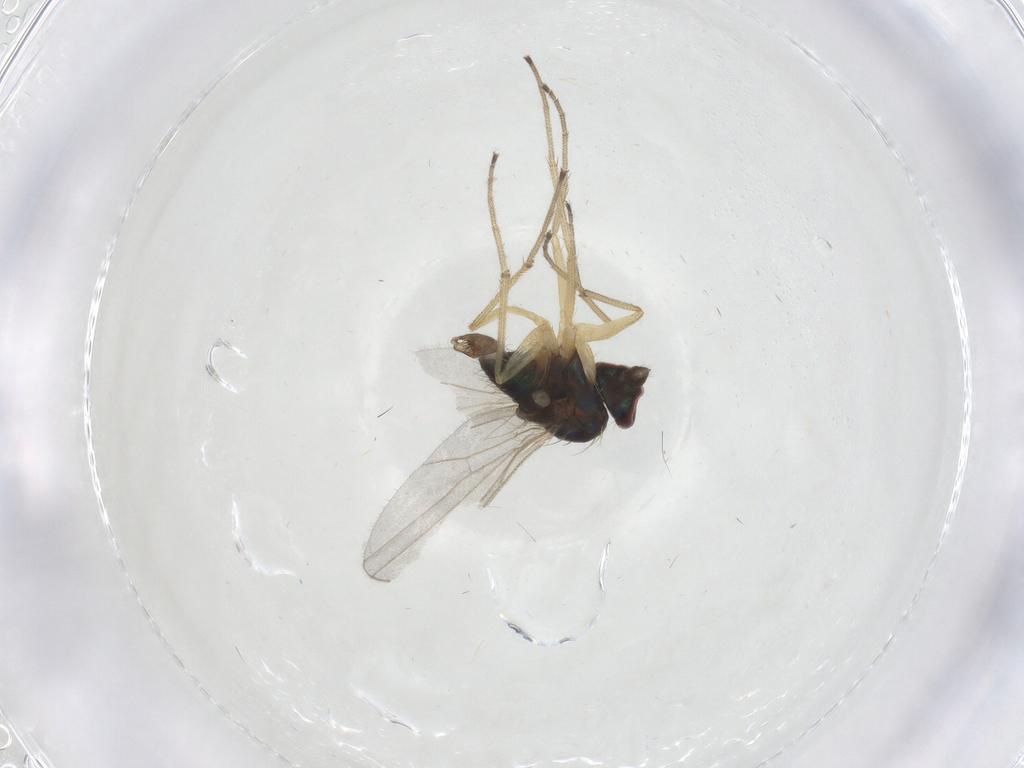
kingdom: Animalia
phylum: Arthropoda
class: Insecta
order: Diptera
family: Dolichopodidae
